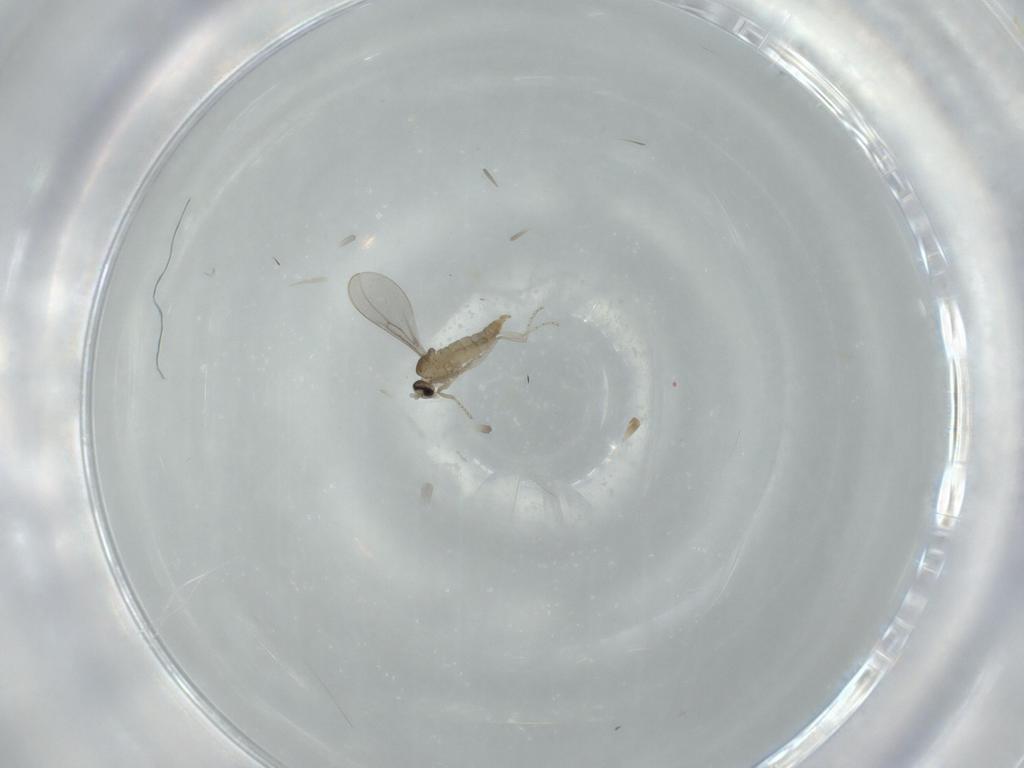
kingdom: Animalia
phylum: Arthropoda
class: Insecta
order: Diptera
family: Cecidomyiidae
